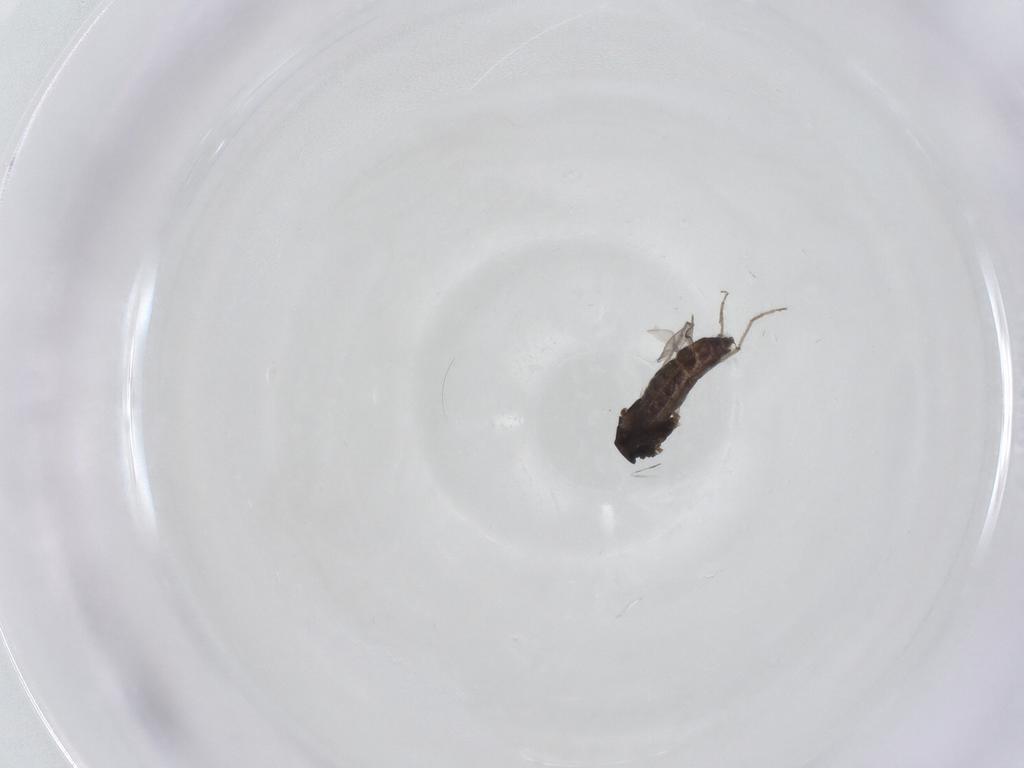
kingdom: Animalia
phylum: Arthropoda
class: Insecta
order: Diptera
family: Chironomidae
